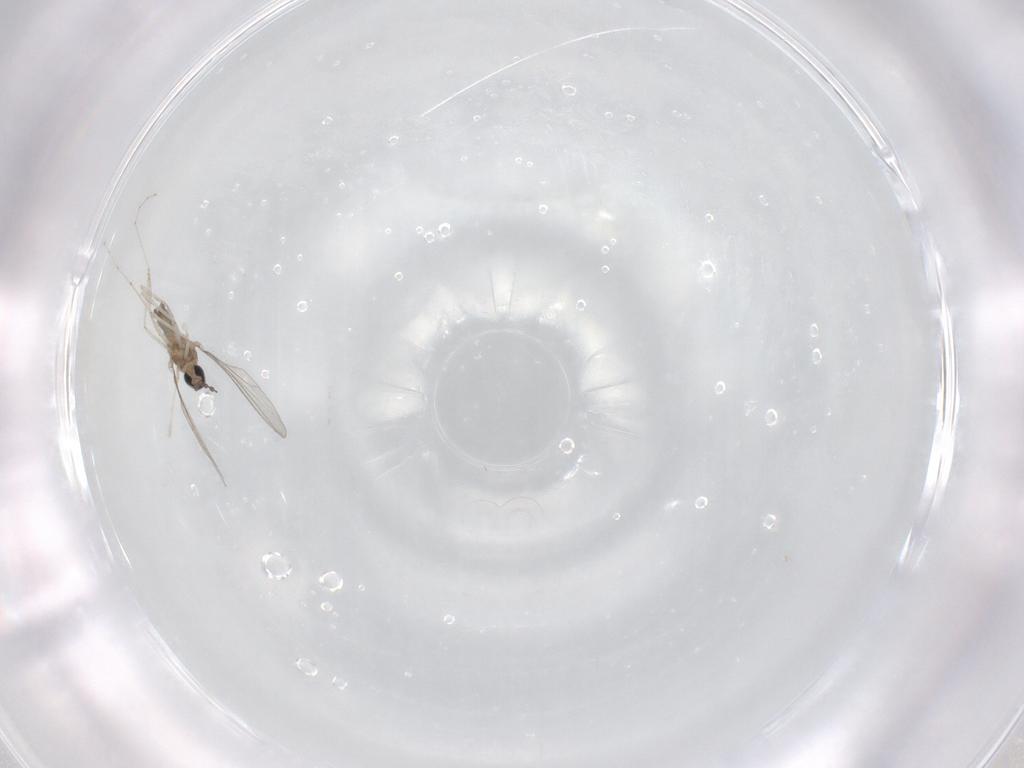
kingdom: Animalia
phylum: Arthropoda
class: Insecta
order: Diptera
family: Cecidomyiidae
